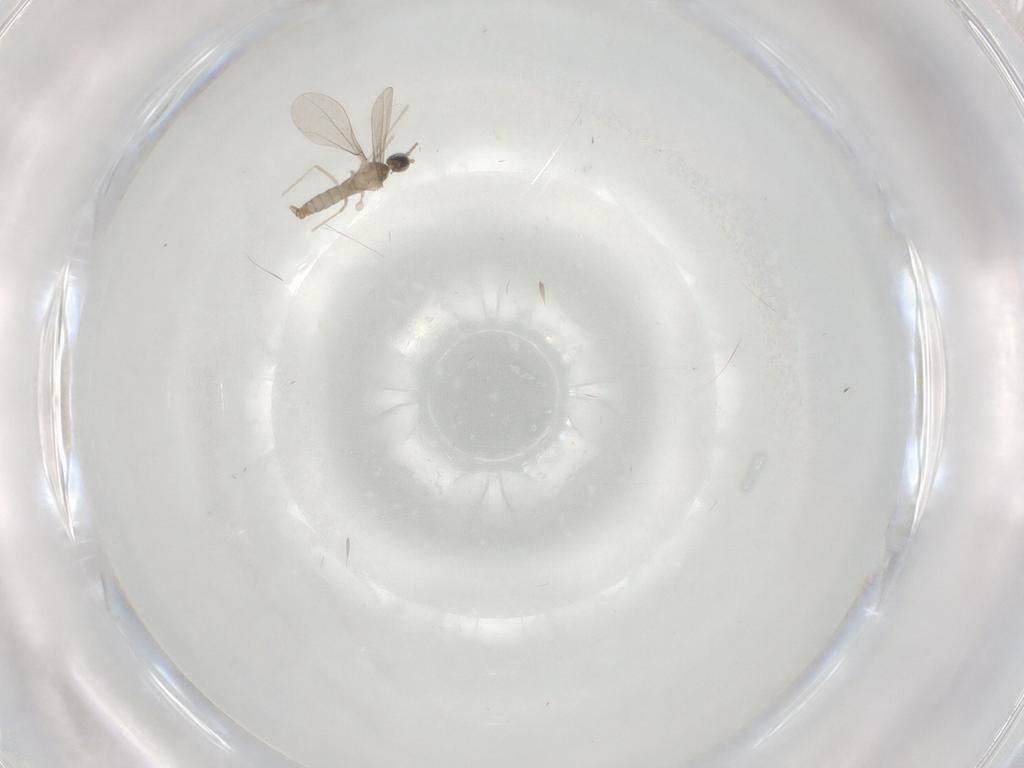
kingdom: Animalia
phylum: Arthropoda
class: Insecta
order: Diptera
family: Cecidomyiidae
